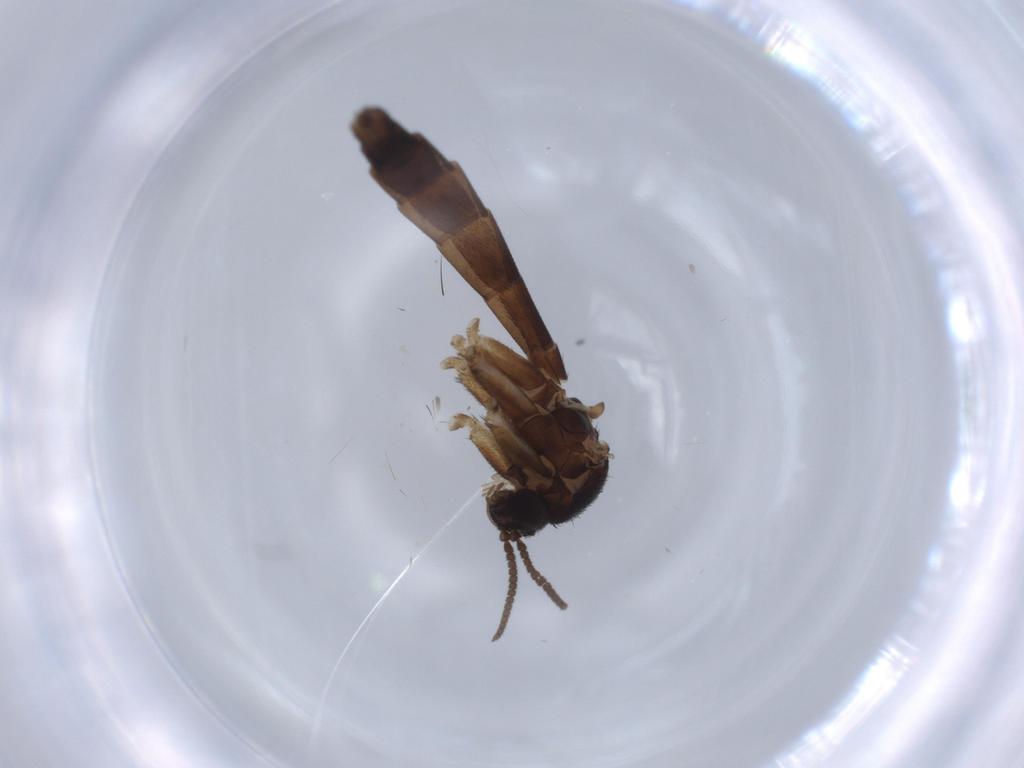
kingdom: Animalia
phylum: Arthropoda
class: Insecta
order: Diptera
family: Keroplatidae
